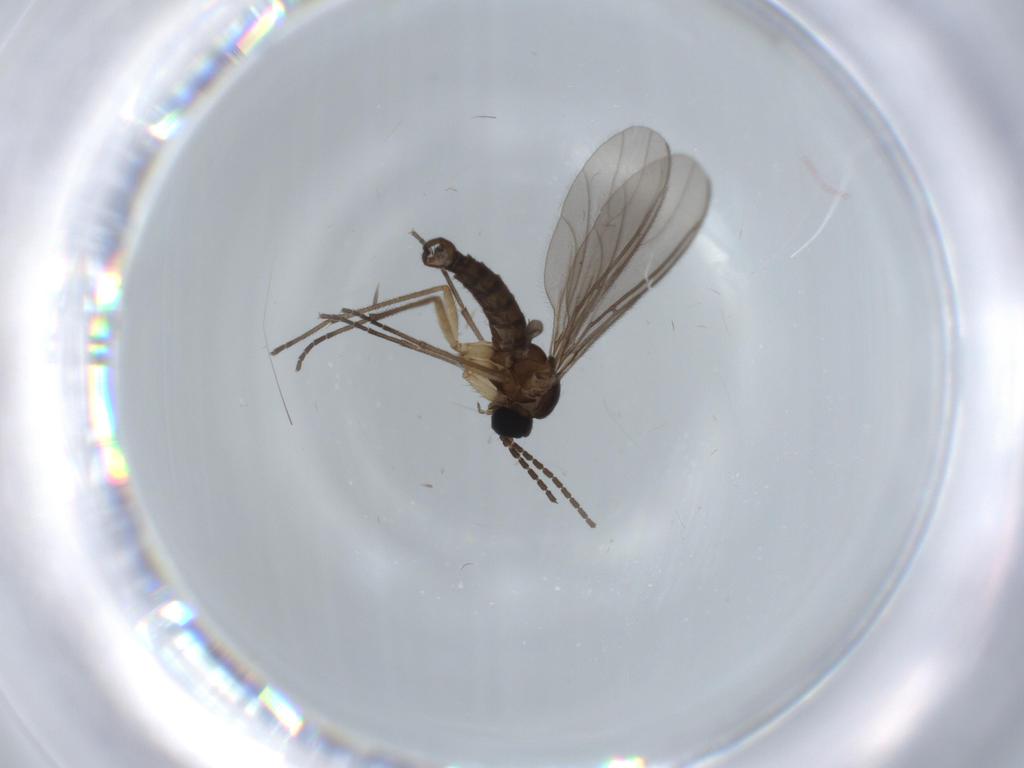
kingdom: Animalia
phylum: Arthropoda
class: Insecta
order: Diptera
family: Sciaridae
